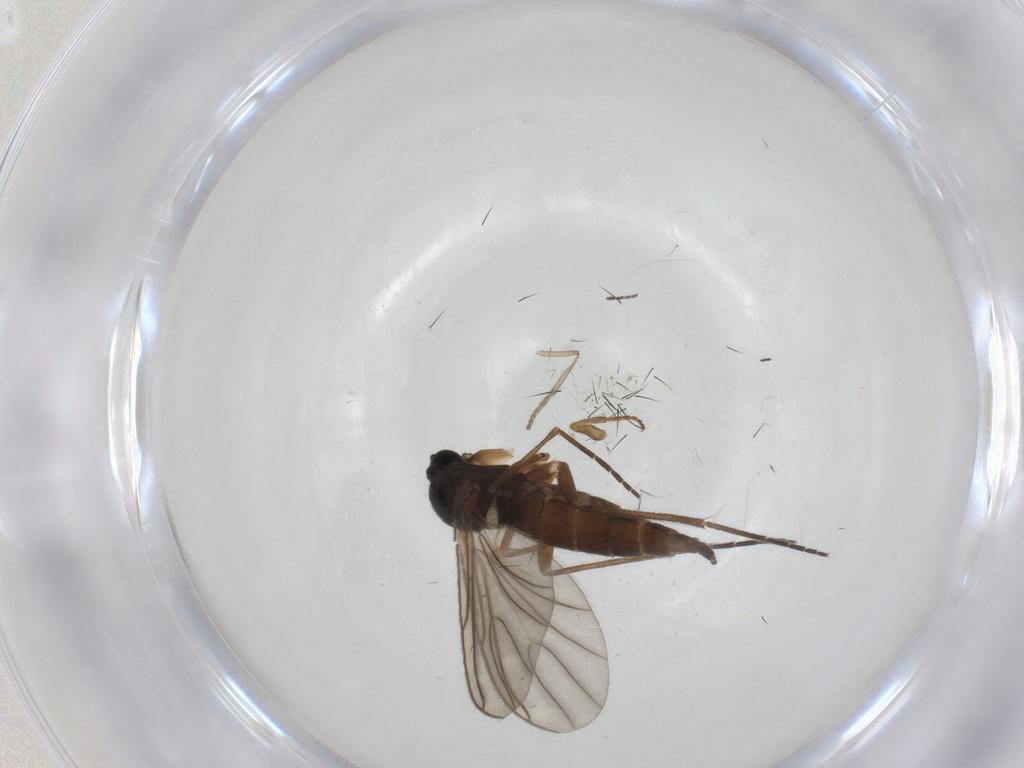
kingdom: Animalia
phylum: Arthropoda
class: Insecta
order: Diptera
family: Sciaridae
